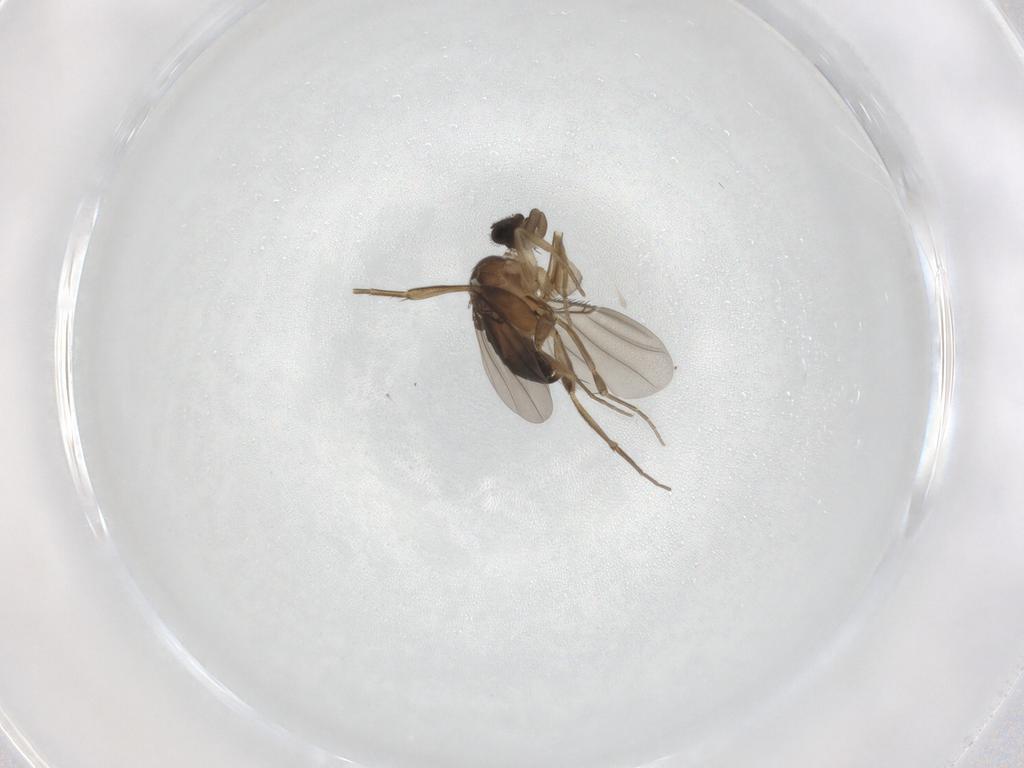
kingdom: Animalia
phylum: Arthropoda
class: Insecta
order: Diptera
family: Phoridae
